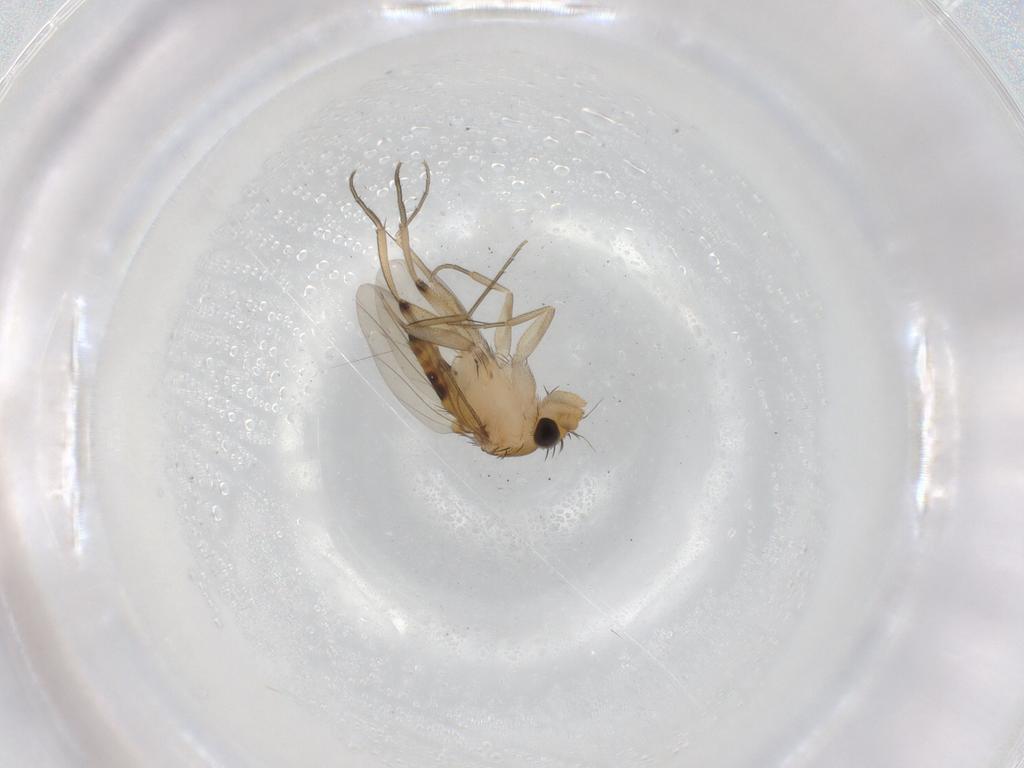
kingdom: Animalia
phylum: Arthropoda
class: Insecta
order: Diptera
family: Phoridae
